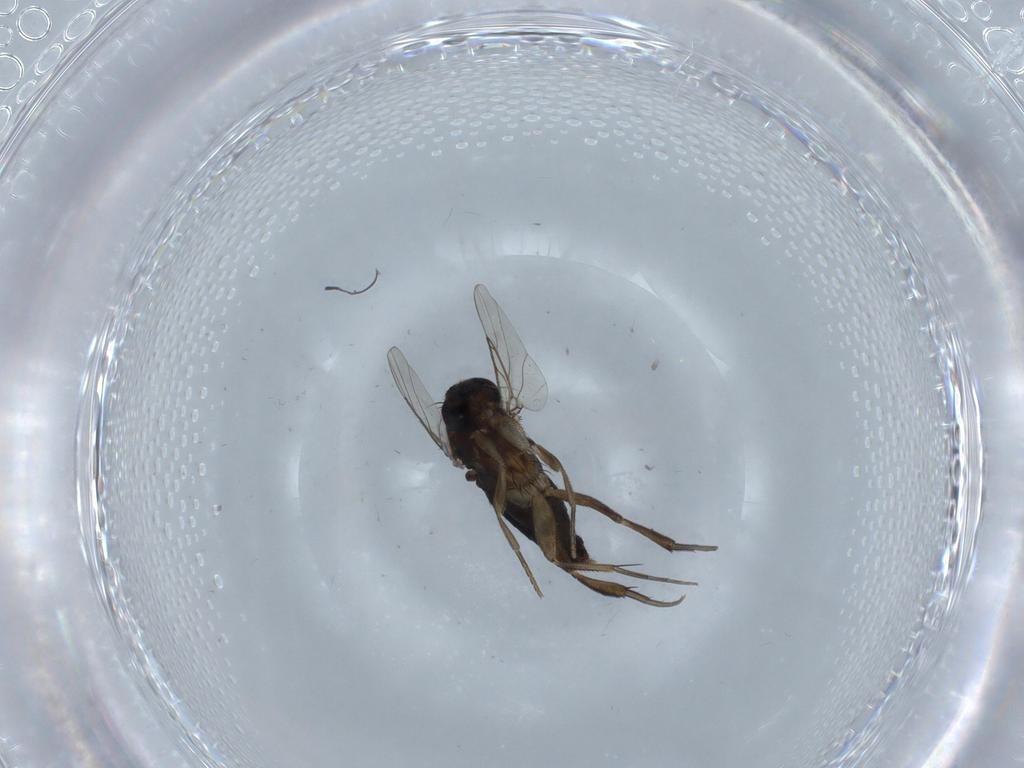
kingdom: Animalia
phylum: Arthropoda
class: Insecta
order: Diptera
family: Phoridae
